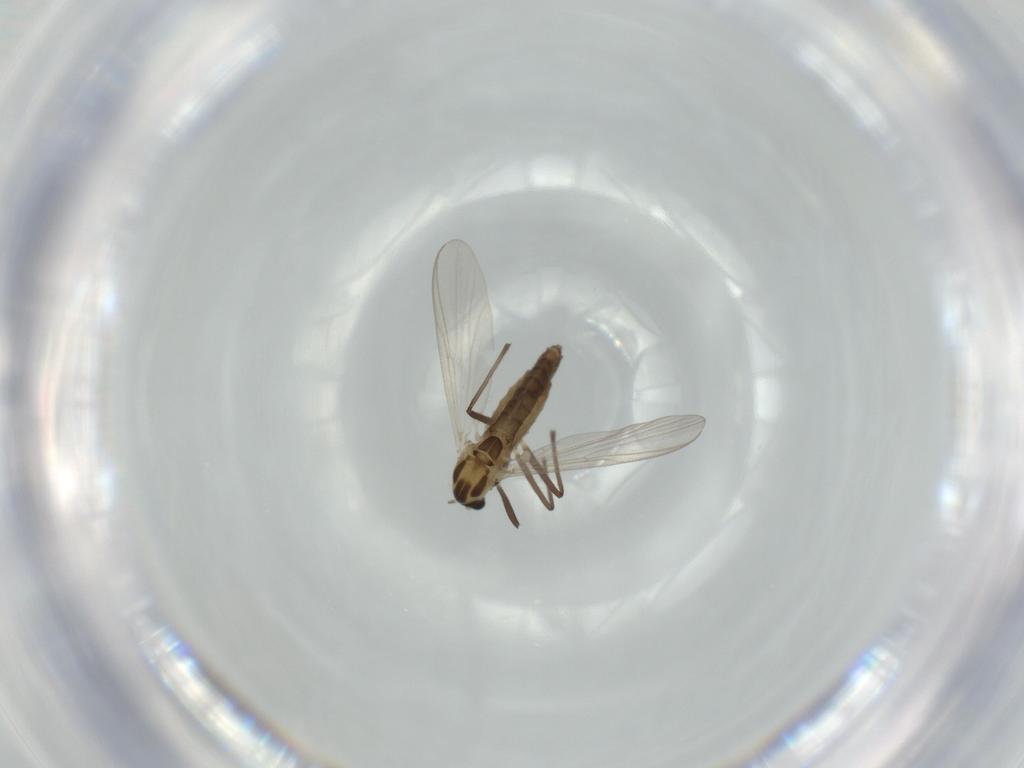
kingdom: Animalia
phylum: Arthropoda
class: Insecta
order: Diptera
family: Chironomidae
